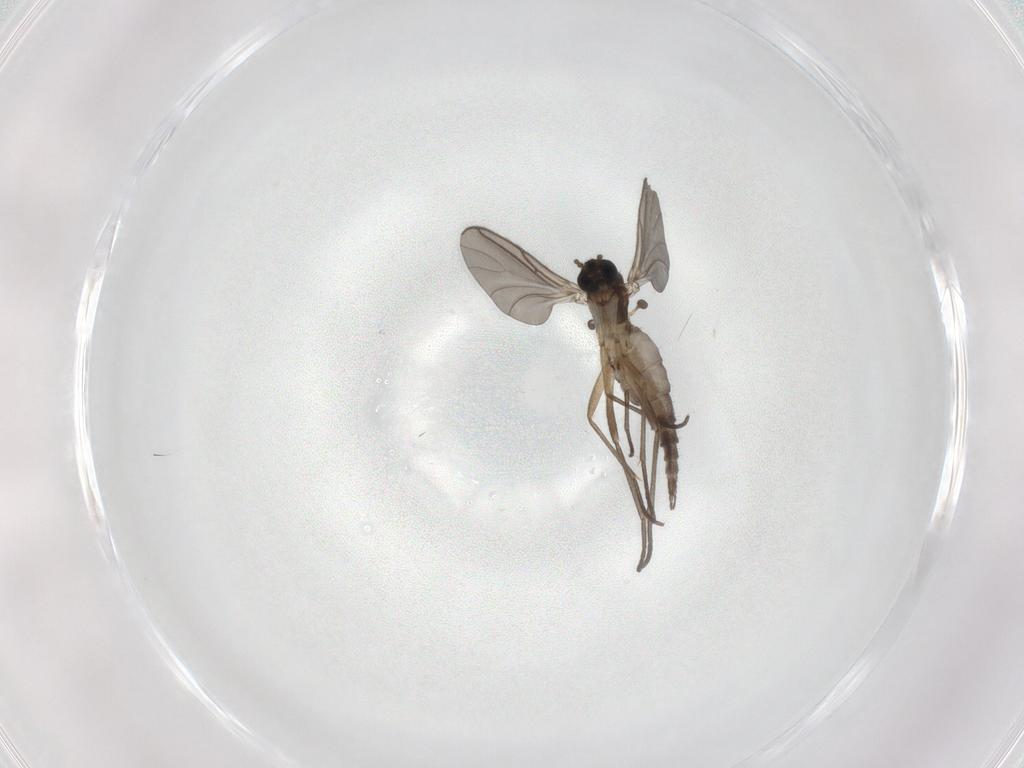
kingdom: Animalia
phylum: Arthropoda
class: Insecta
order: Diptera
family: Sciaridae
